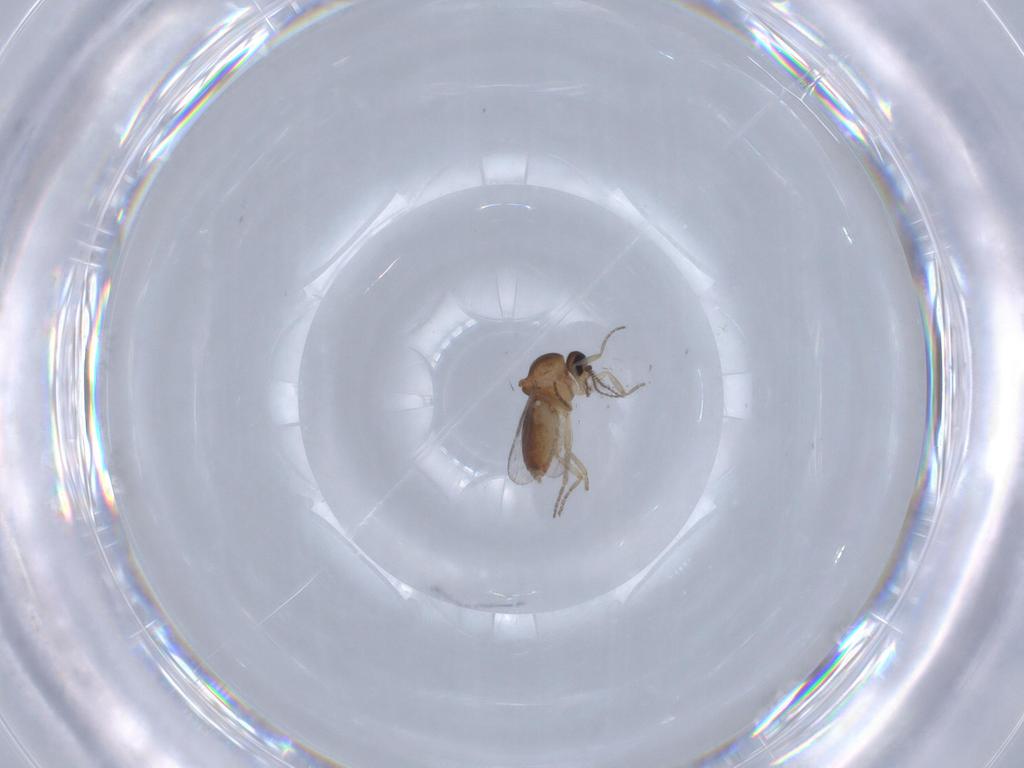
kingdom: Animalia
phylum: Arthropoda
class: Insecta
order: Diptera
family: Ceratopogonidae
